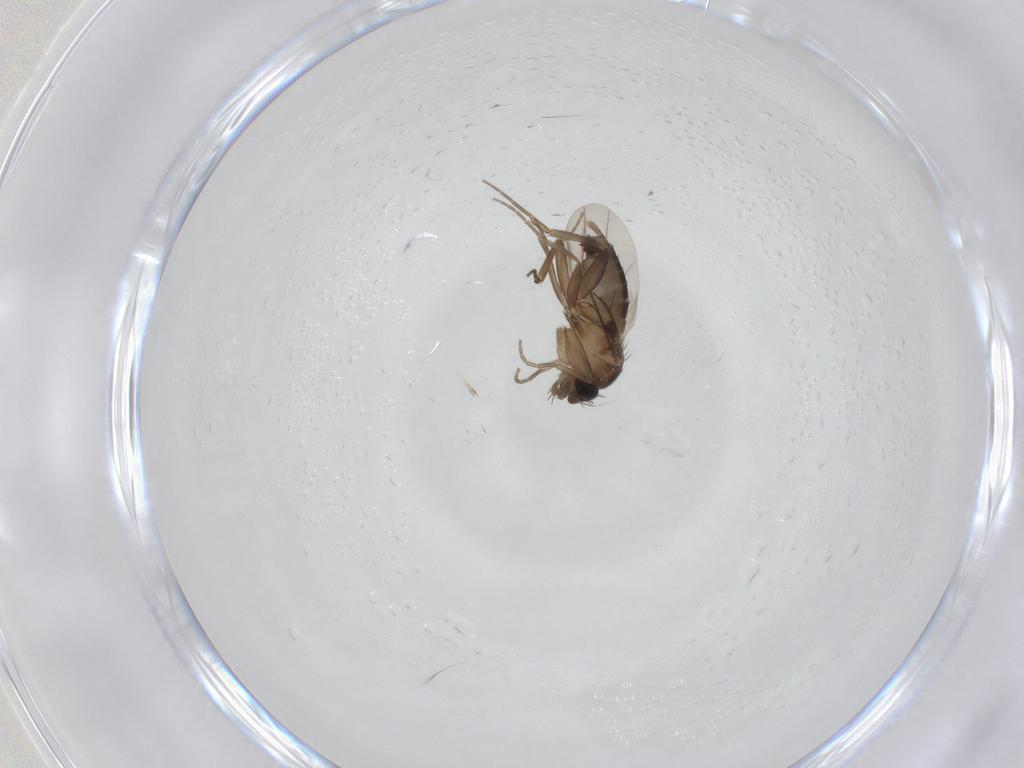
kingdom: Animalia
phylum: Arthropoda
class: Insecta
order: Diptera
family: Phoridae
